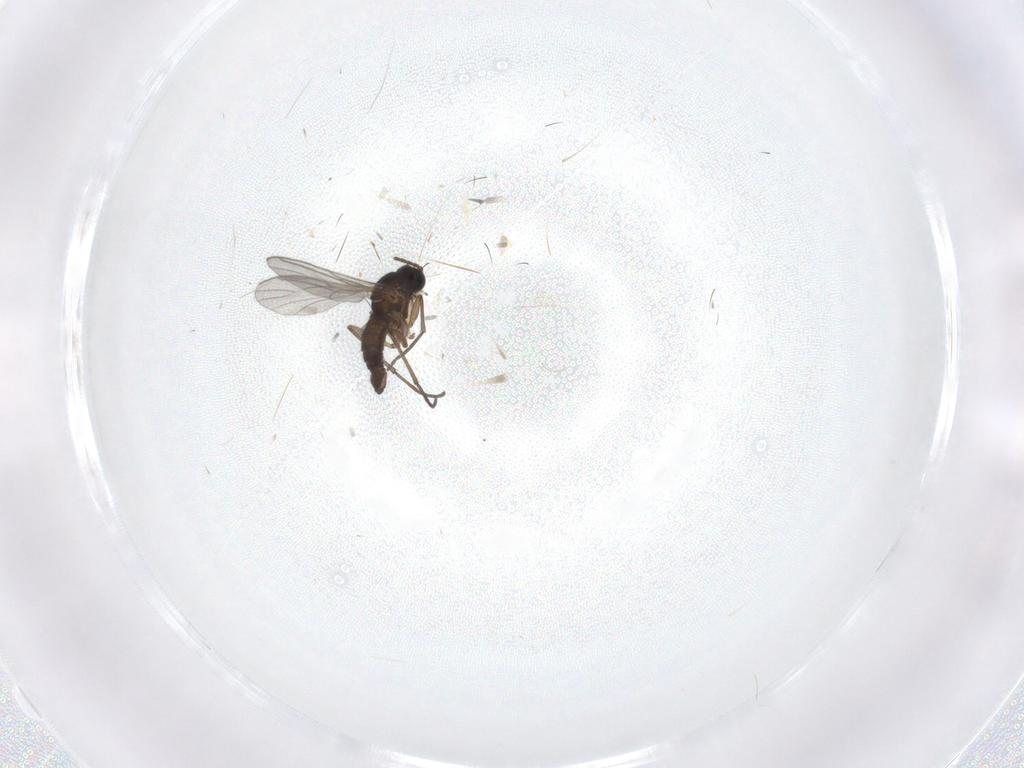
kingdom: Animalia
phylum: Arthropoda
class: Insecta
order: Diptera
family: Sciaridae
